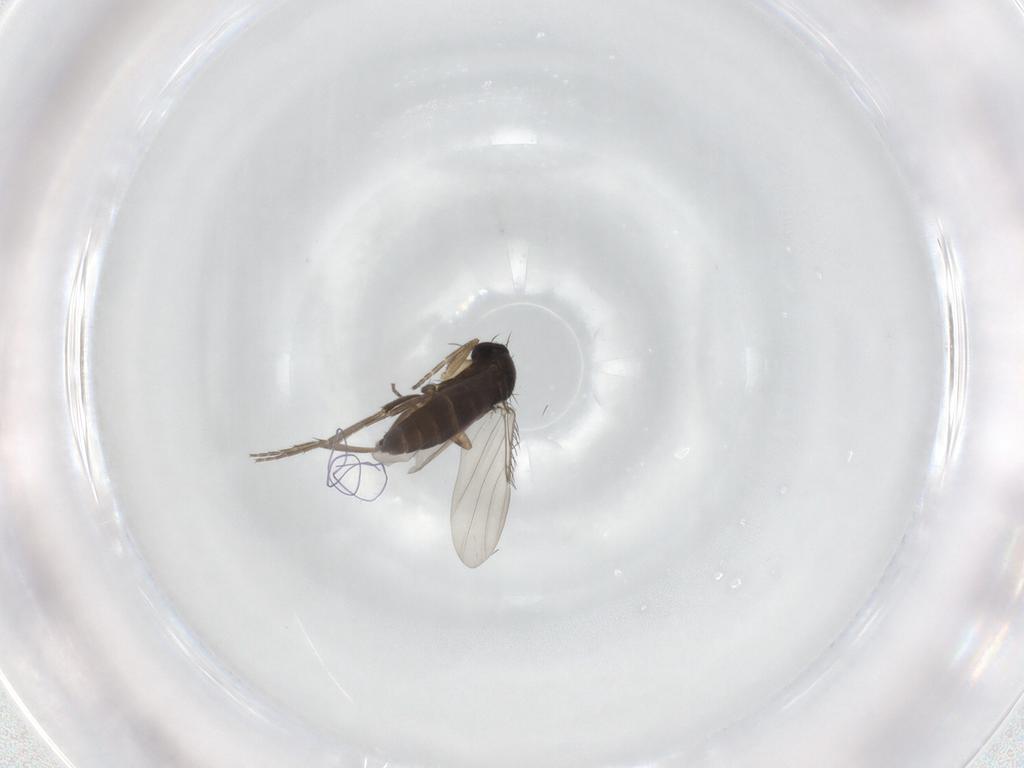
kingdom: Animalia
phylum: Arthropoda
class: Insecta
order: Diptera
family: Phoridae
